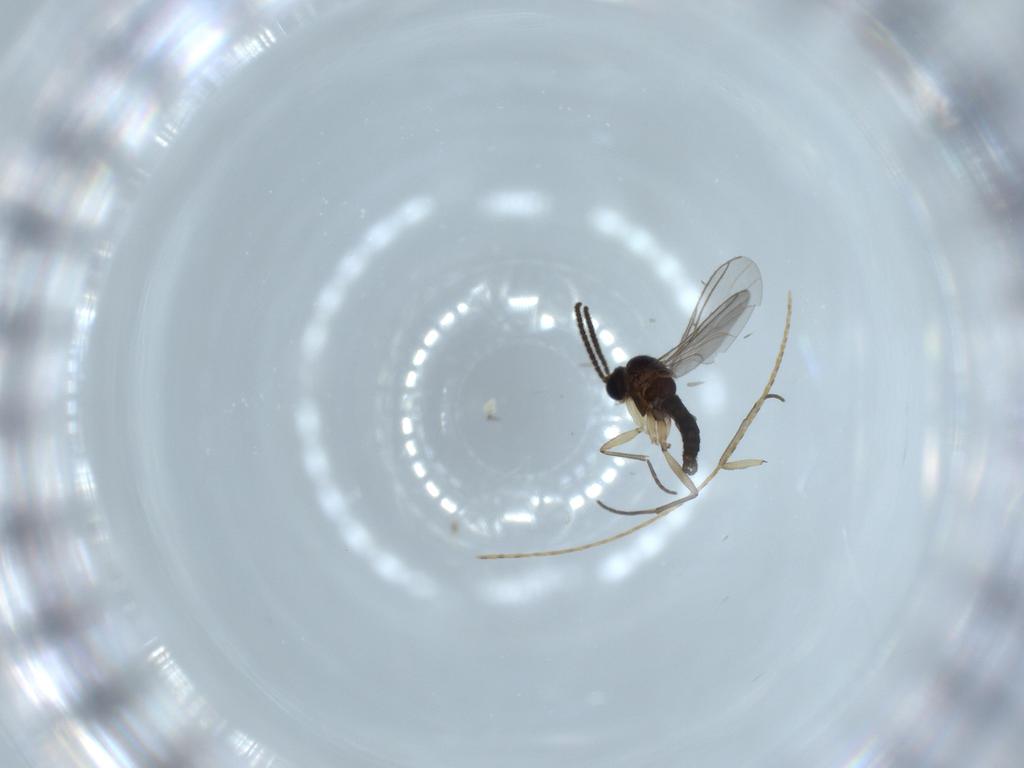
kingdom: Animalia
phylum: Arthropoda
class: Insecta
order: Diptera
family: Sciaridae
